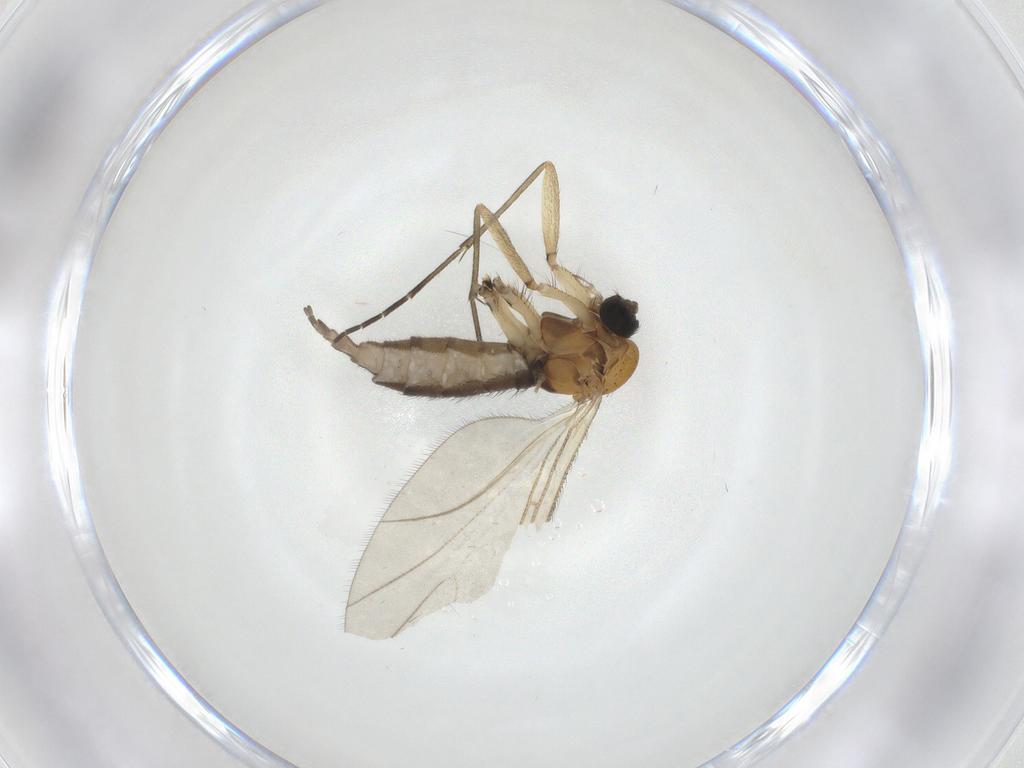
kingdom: Animalia
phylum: Arthropoda
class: Insecta
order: Diptera
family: Sciaridae
